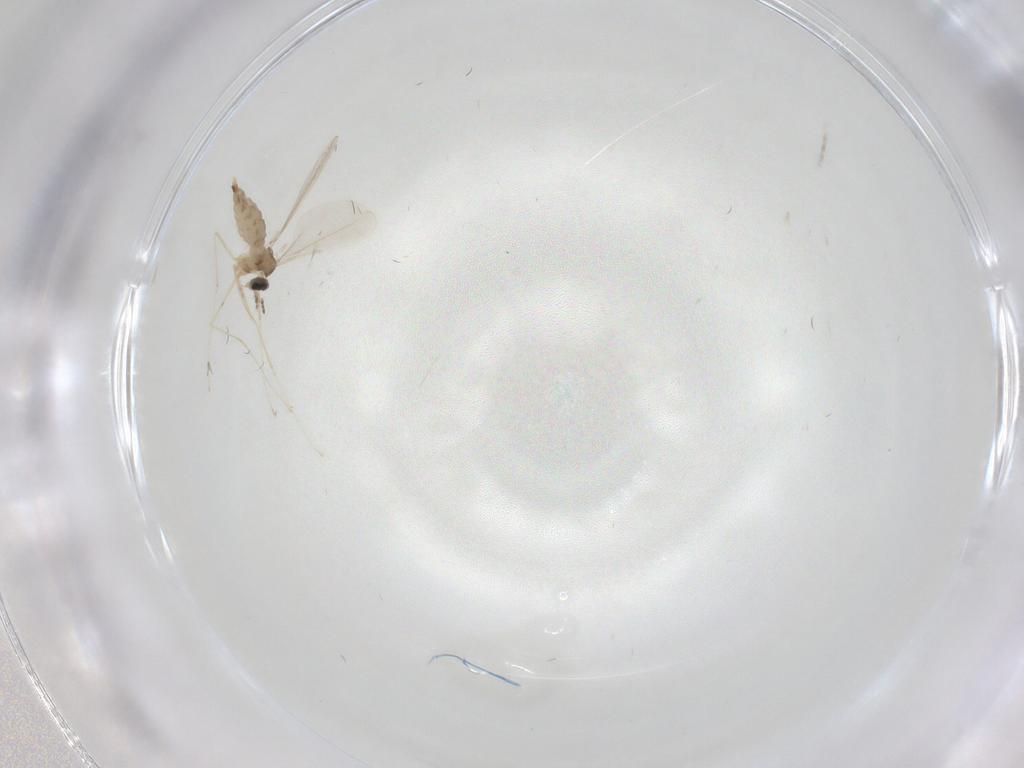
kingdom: Animalia
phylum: Arthropoda
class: Insecta
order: Diptera
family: Cecidomyiidae
